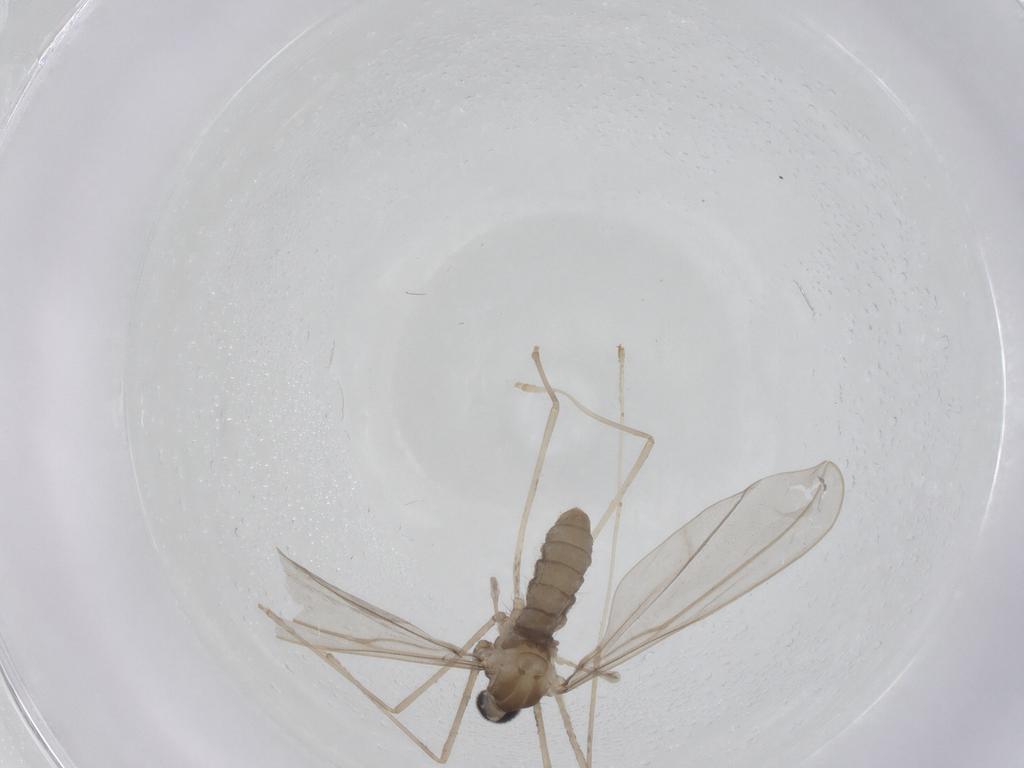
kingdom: Animalia
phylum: Arthropoda
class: Insecta
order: Diptera
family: Cecidomyiidae
